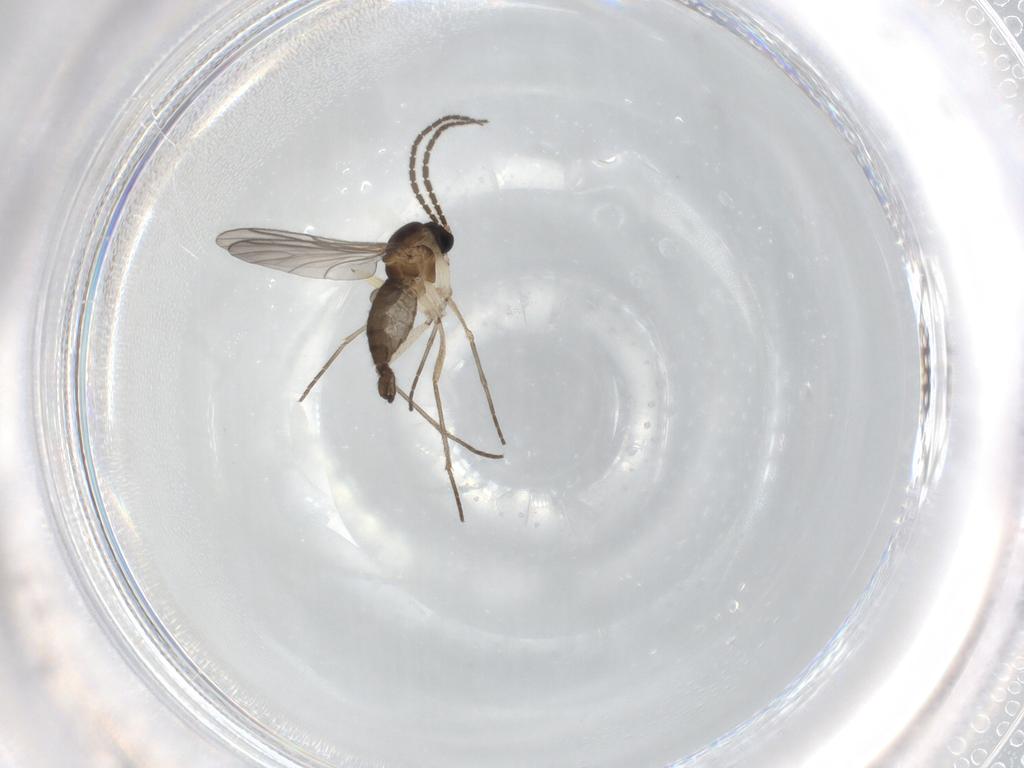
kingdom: Animalia
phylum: Arthropoda
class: Insecta
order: Diptera
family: Sciaridae
